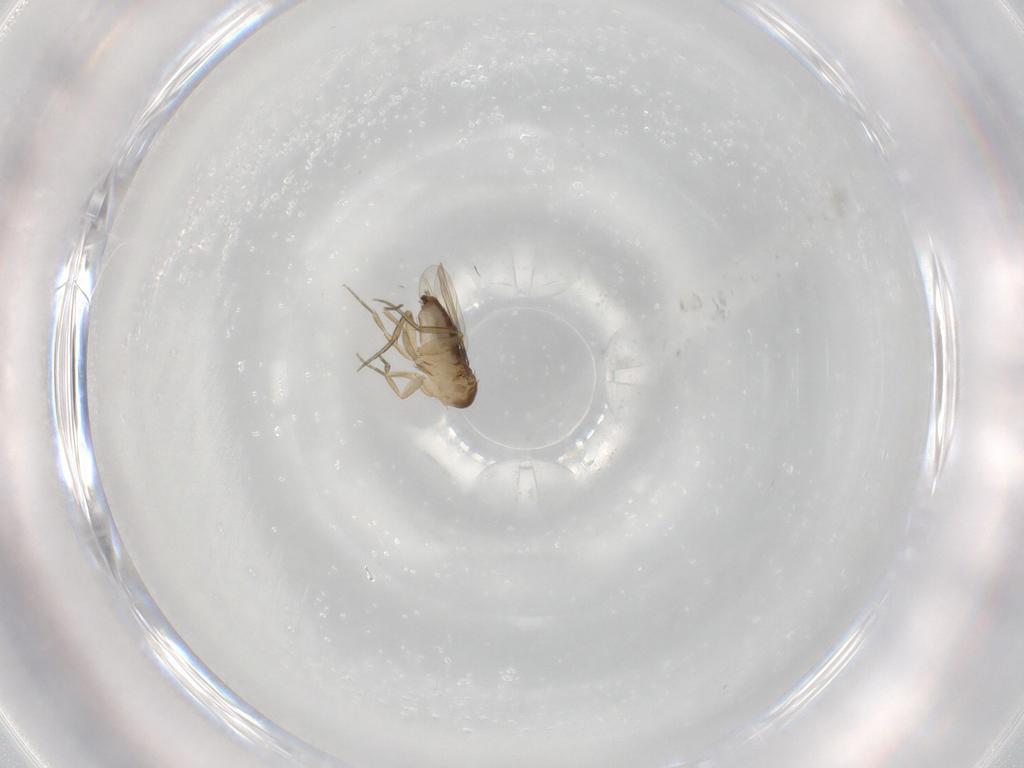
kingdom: Animalia
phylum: Arthropoda
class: Insecta
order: Diptera
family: Phoridae
